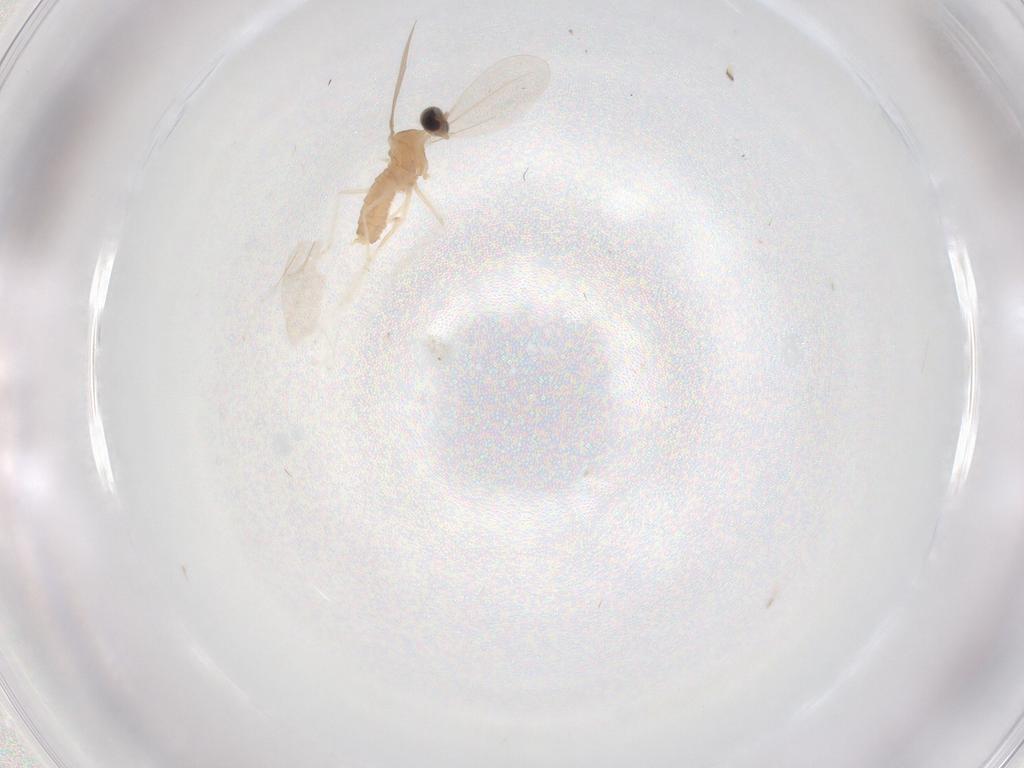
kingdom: Animalia
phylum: Arthropoda
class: Insecta
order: Diptera
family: Cecidomyiidae
